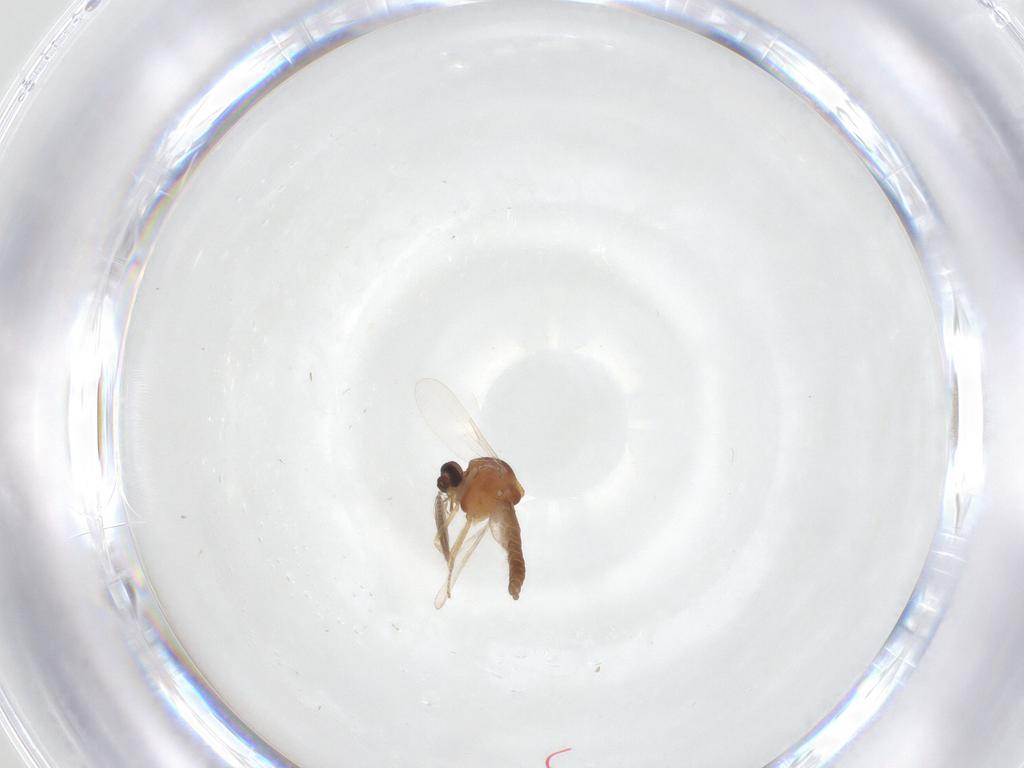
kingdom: Animalia
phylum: Arthropoda
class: Insecta
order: Diptera
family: Ceratopogonidae
